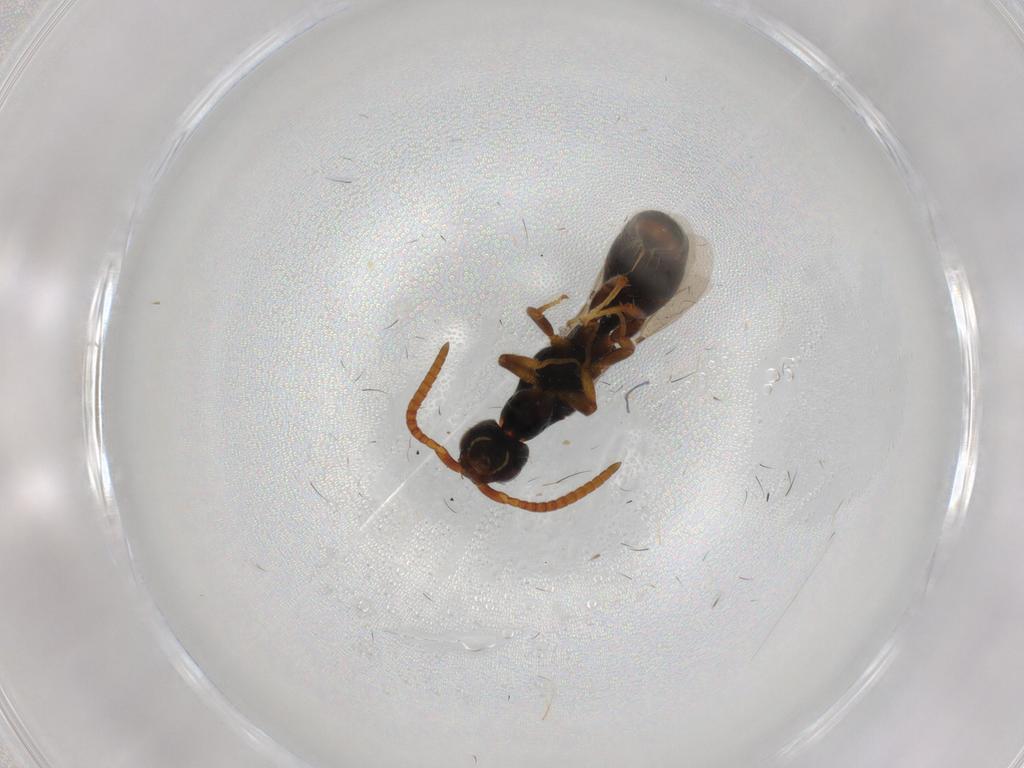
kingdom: Animalia
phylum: Arthropoda
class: Insecta
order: Hymenoptera
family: Bethylidae
